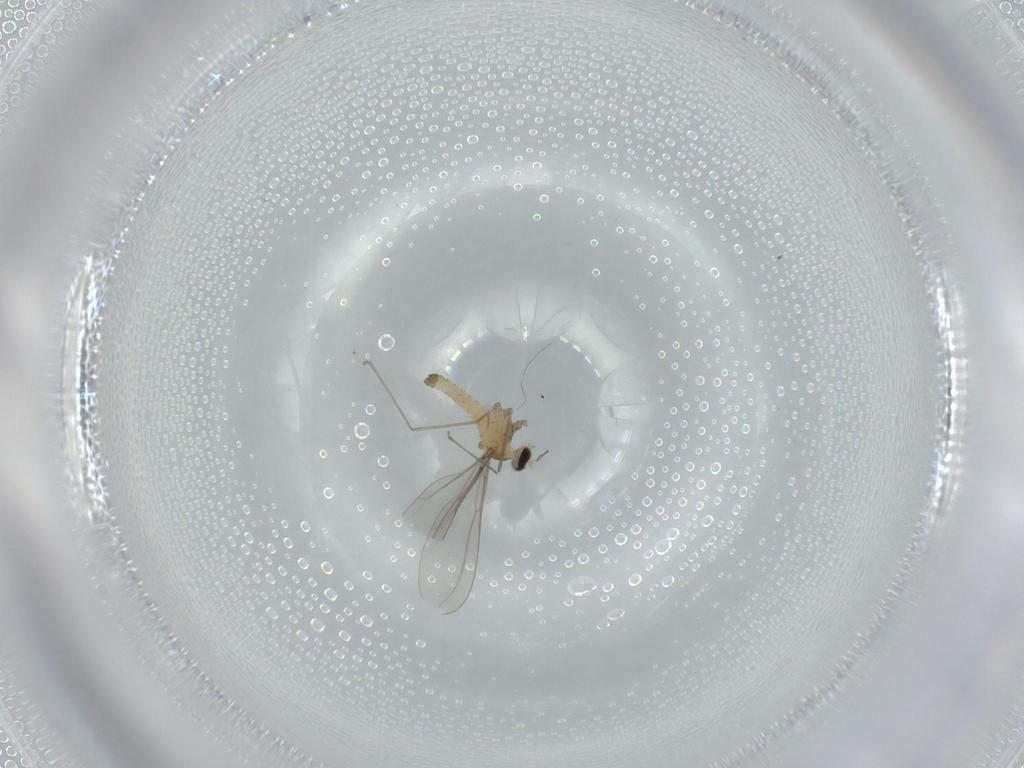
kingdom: Animalia
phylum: Arthropoda
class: Insecta
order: Diptera
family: Cecidomyiidae
